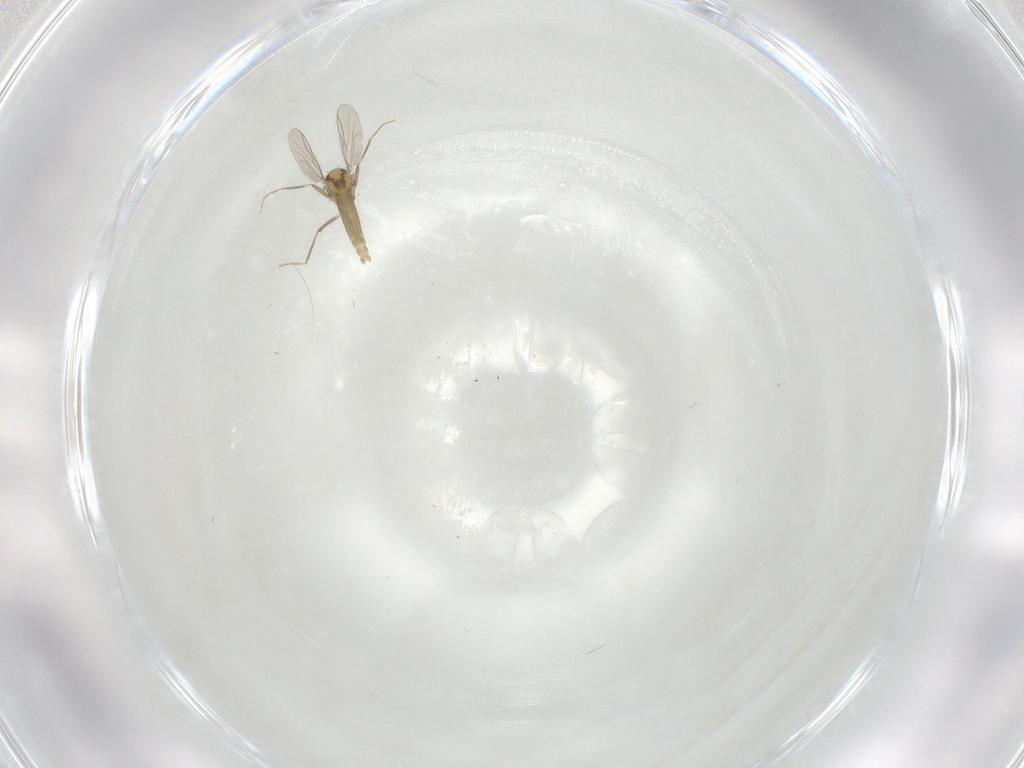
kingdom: Animalia
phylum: Arthropoda
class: Insecta
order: Diptera
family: Chironomidae
